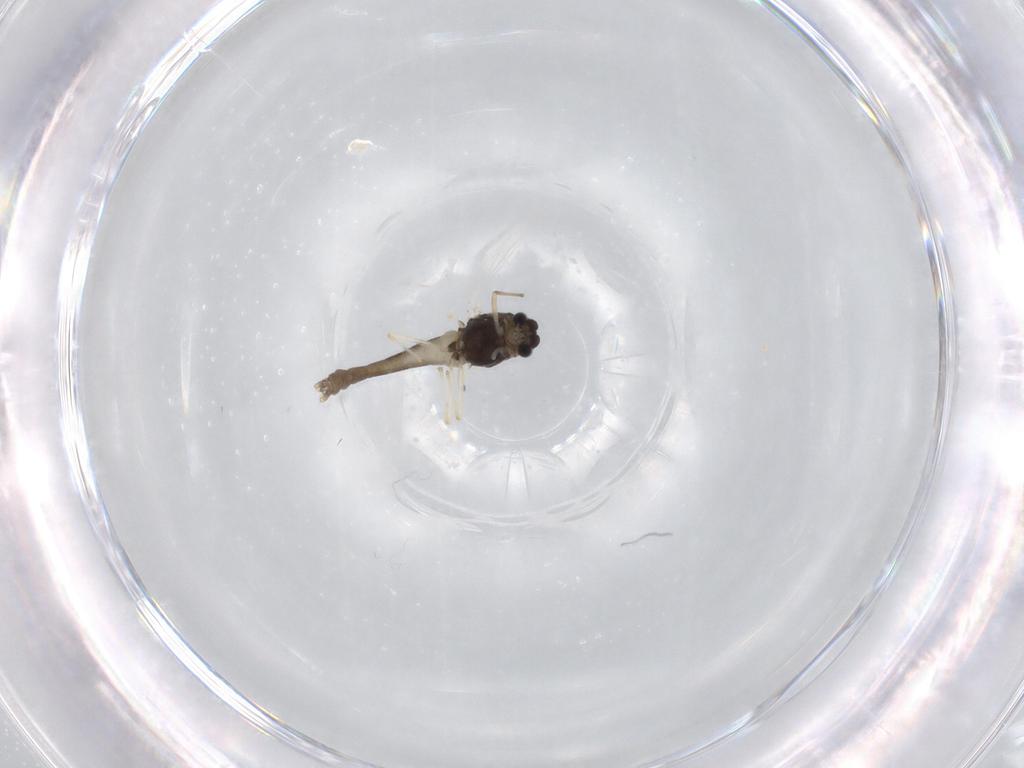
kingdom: Animalia
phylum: Arthropoda
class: Insecta
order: Diptera
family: Chironomidae
